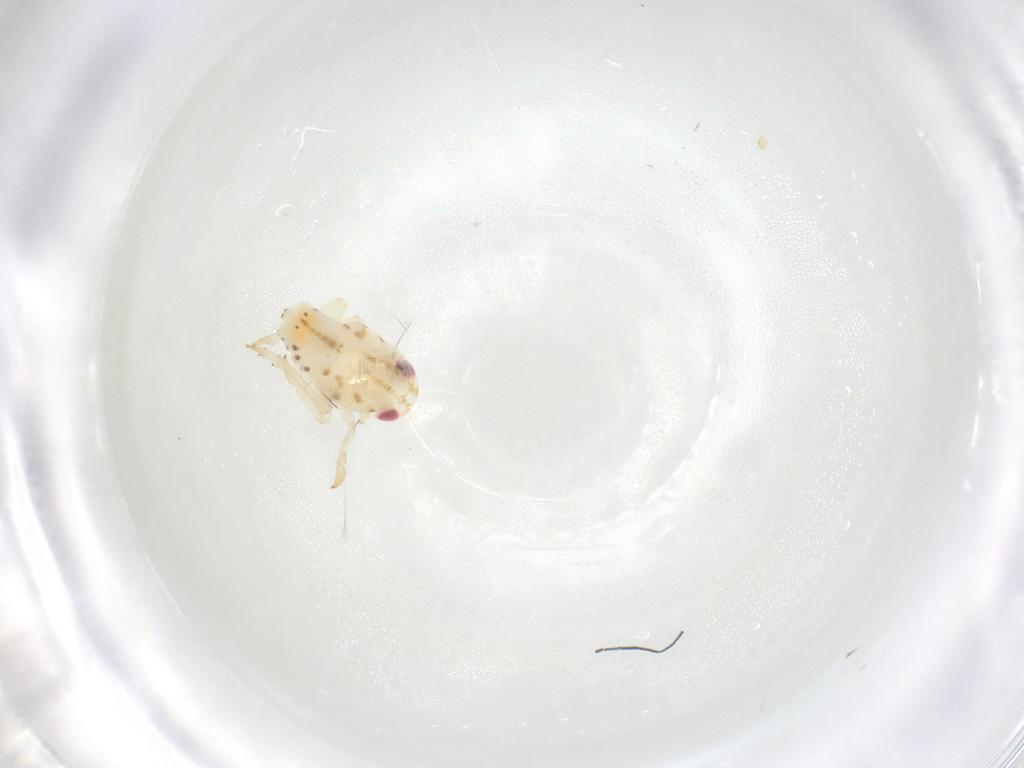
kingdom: Animalia
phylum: Arthropoda
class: Insecta
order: Hemiptera
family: Tropiduchidae
